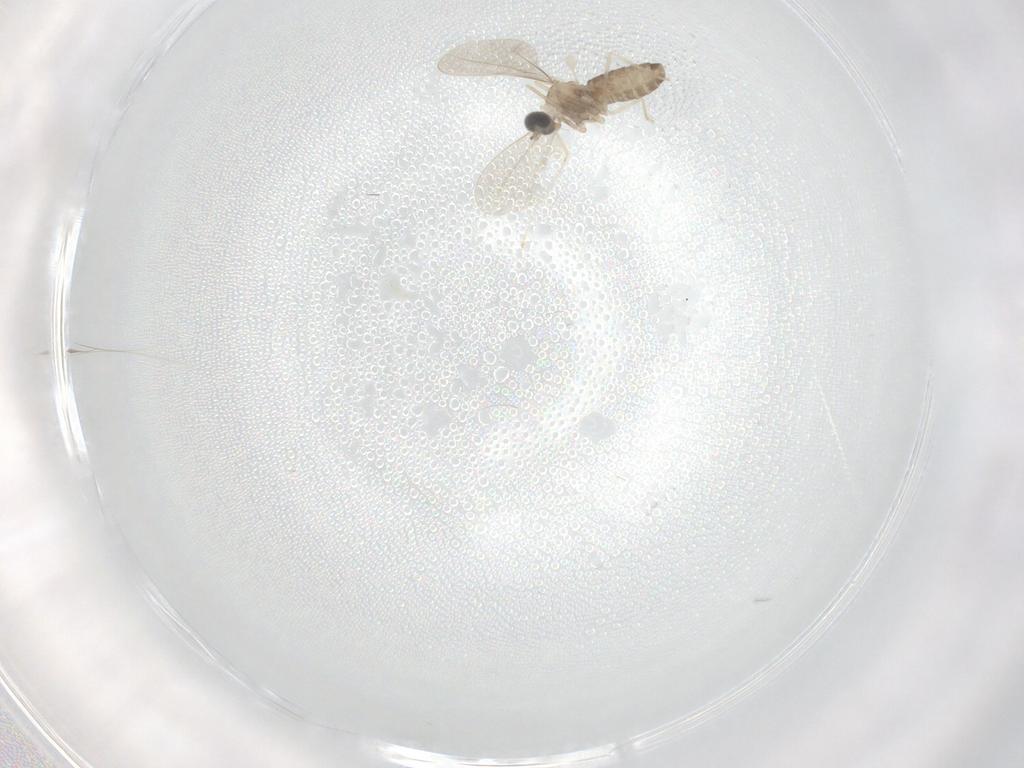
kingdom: Animalia
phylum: Arthropoda
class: Insecta
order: Diptera
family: Cecidomyiidae
